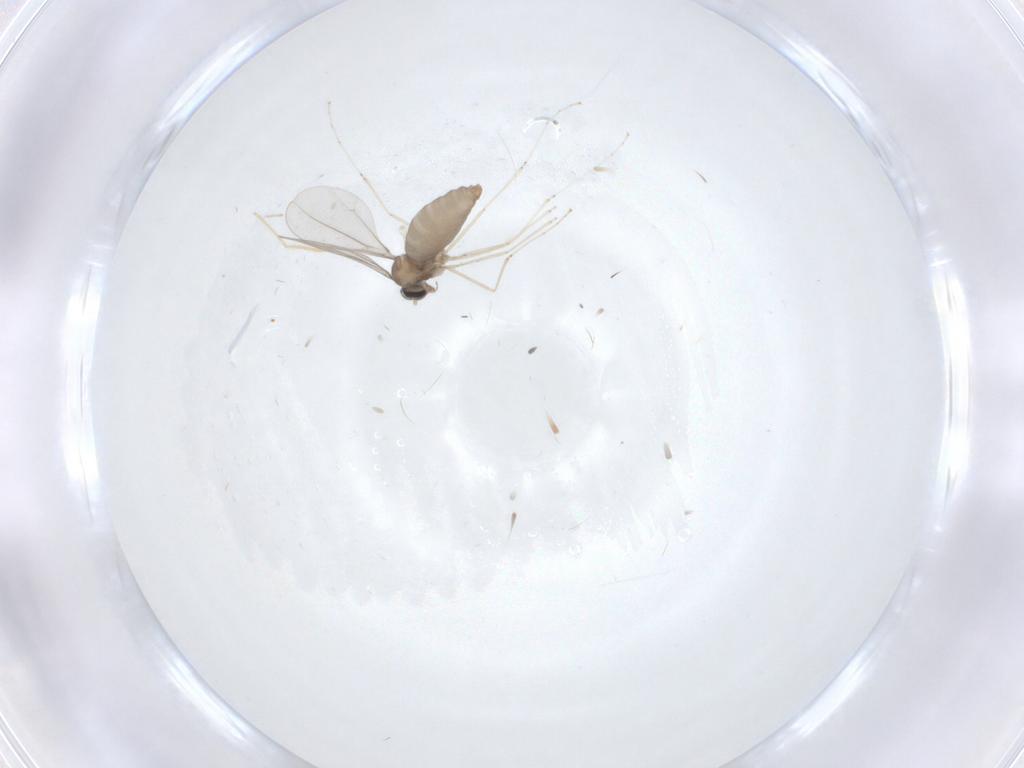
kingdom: Animalia
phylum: Arthropoda
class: Insecta
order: Diptera
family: Cecidomyiidae
